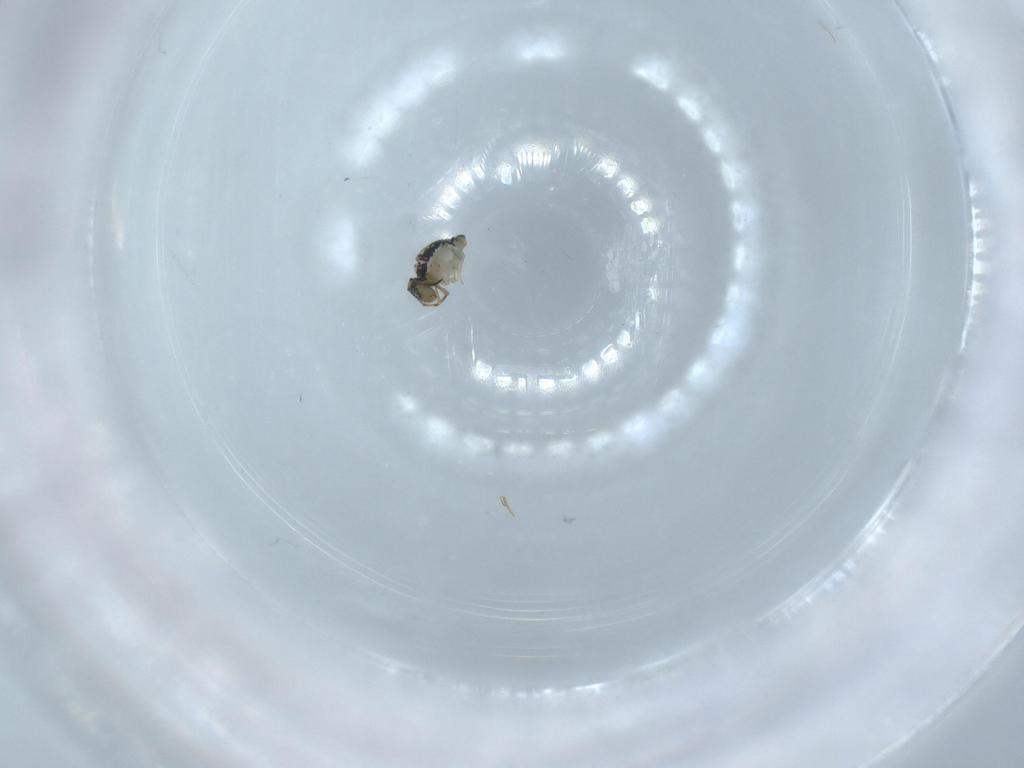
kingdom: Animalia
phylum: Arthropoda
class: Collembola
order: Symphypleona
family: Katiannidae
